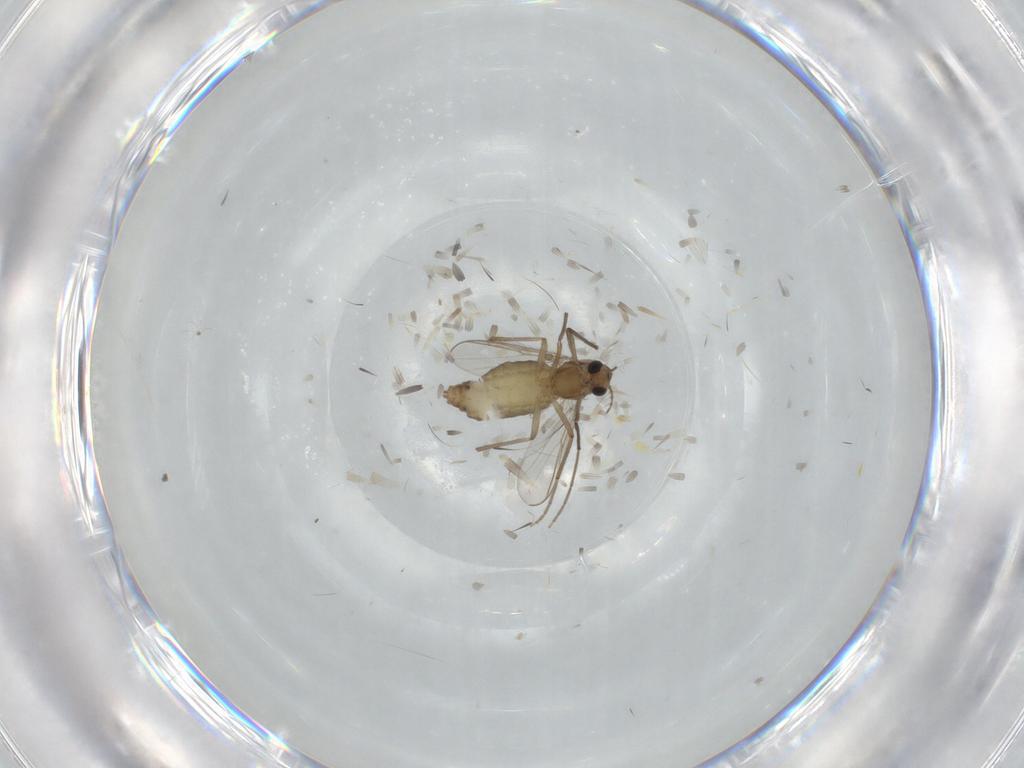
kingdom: Animalia
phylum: Arthropoda
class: Insecta
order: Diptera
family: Chironomidae
